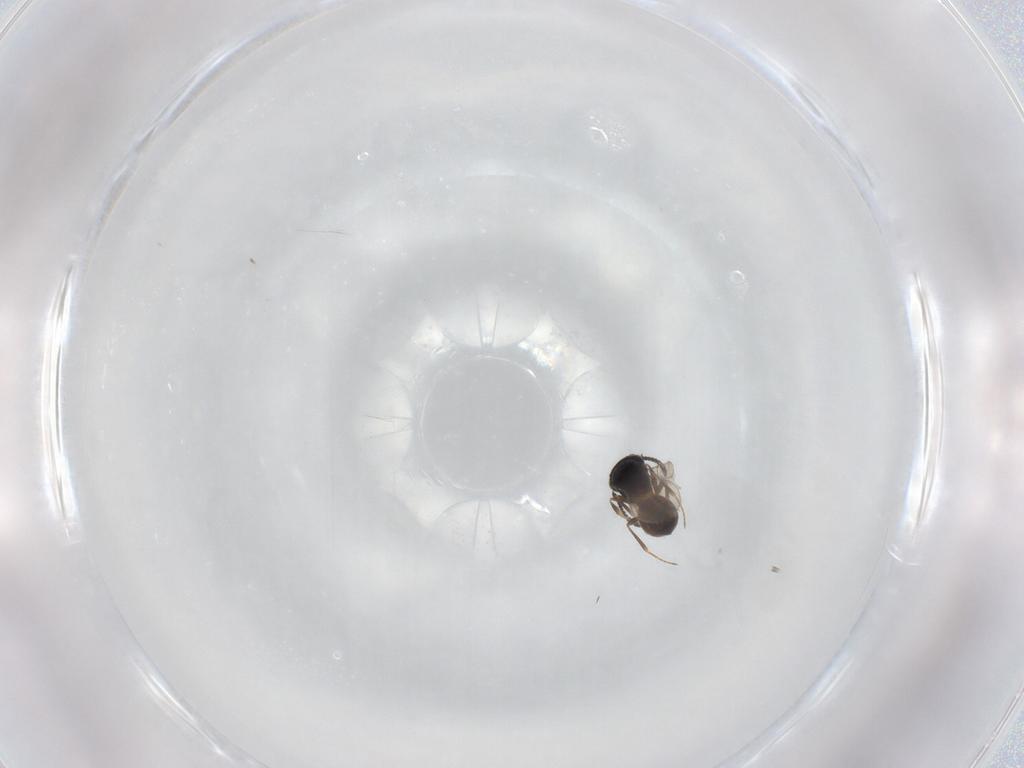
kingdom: Animalia
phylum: Arthropoda
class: Insecta
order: Hymenoptera
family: Scelionidae
